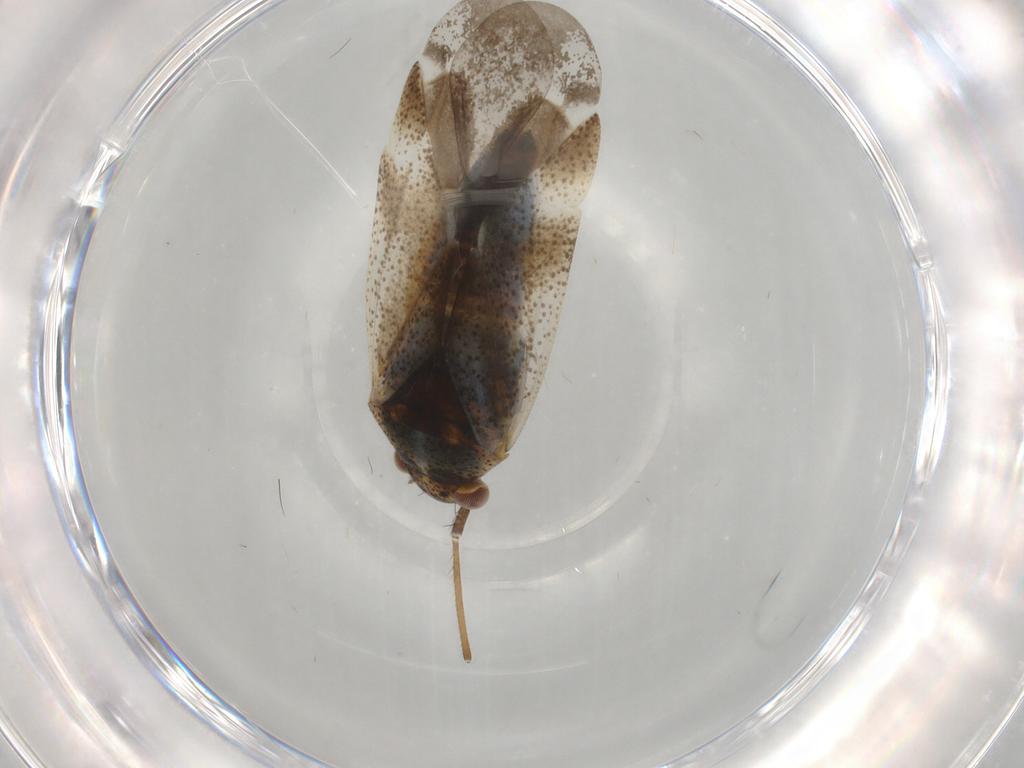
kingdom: Animalia
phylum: Arthropoda
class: Insecta
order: Hemiptera
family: Miridae
